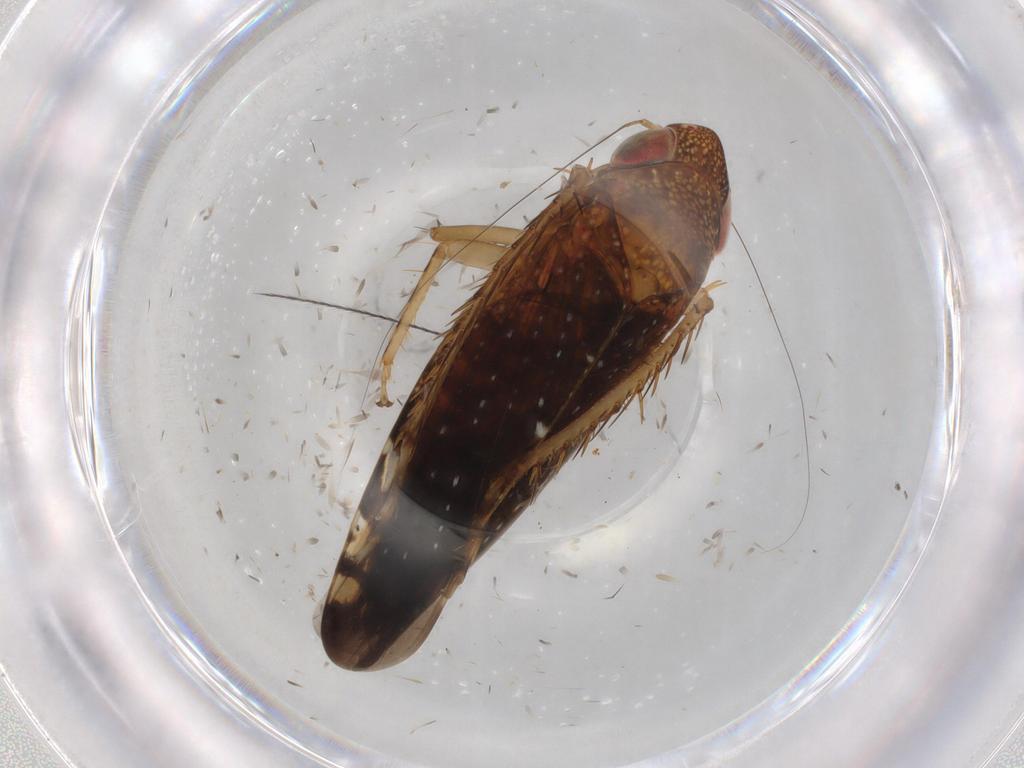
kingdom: Animalia
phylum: Arthropoda
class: Insecta
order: Hemiptera
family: Cicadellidae
